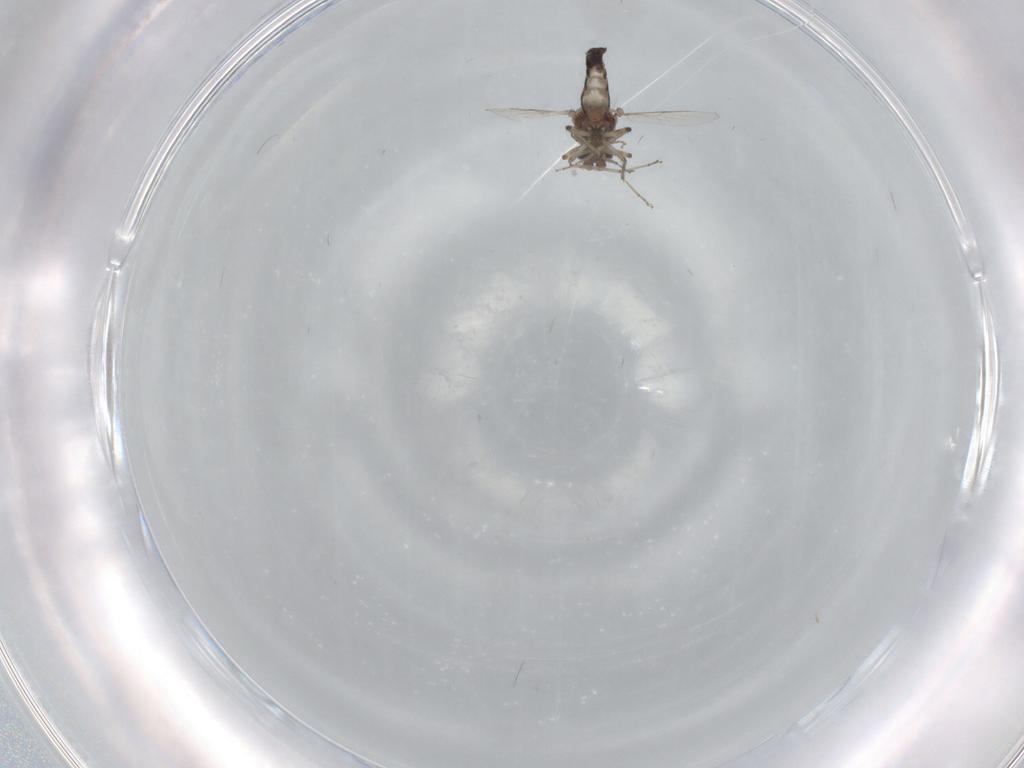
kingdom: Animalia
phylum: Arthropoda
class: Insecta
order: Diptera
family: Ceratopogonidae
